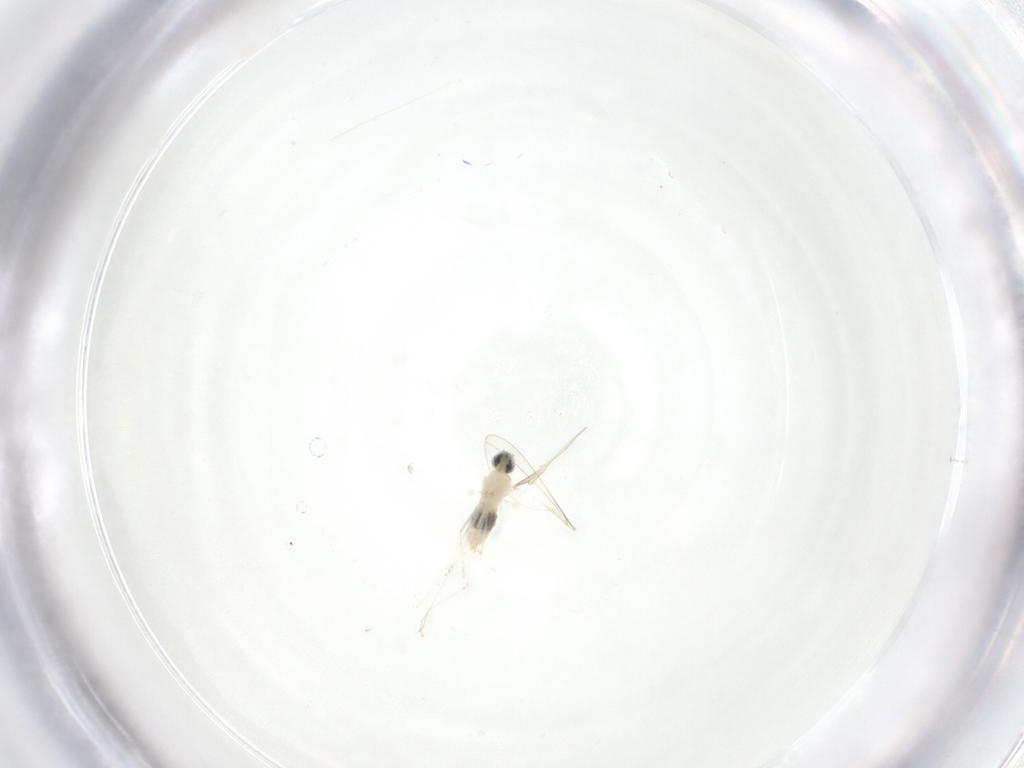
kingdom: Animalia
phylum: Arthropoda
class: Insecta
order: Diptera
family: Cecidomyiidae
